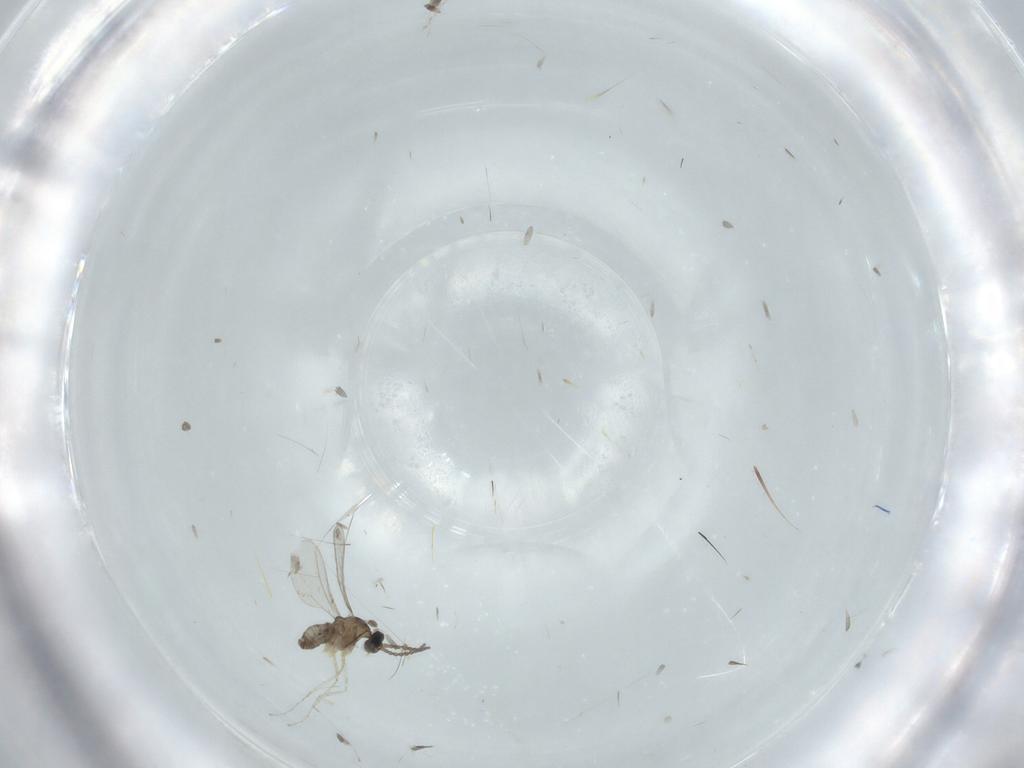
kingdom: Animalia
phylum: Arthropoda
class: Insecta
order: Diptera
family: Cecidomyiidae
